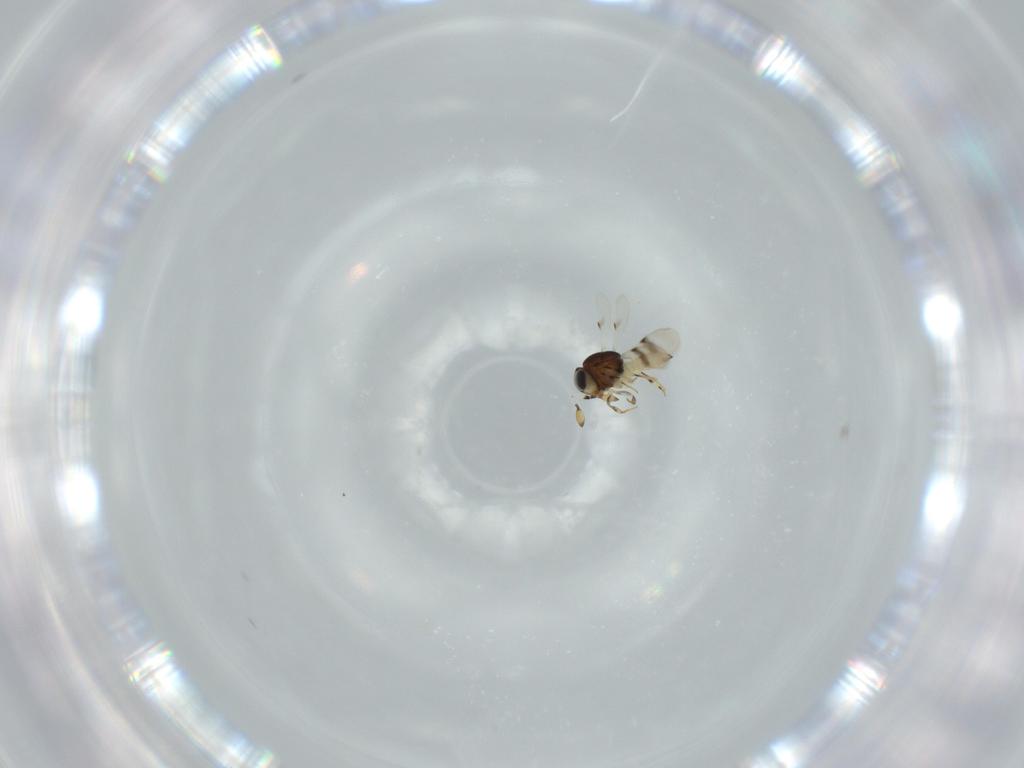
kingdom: Animalia
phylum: Arthropoda
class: Insecta
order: Hymenoptera
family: Scelionidae
